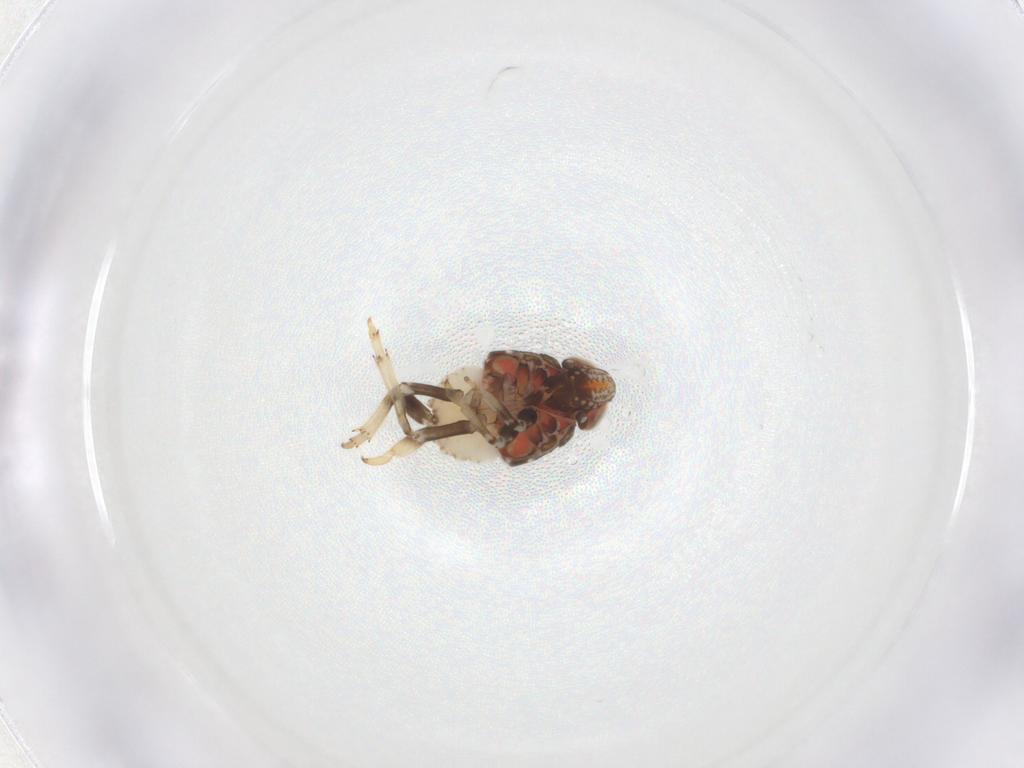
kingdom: Animalia
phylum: Arthropoda
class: Insecta
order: Hemiptera
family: Issidae
